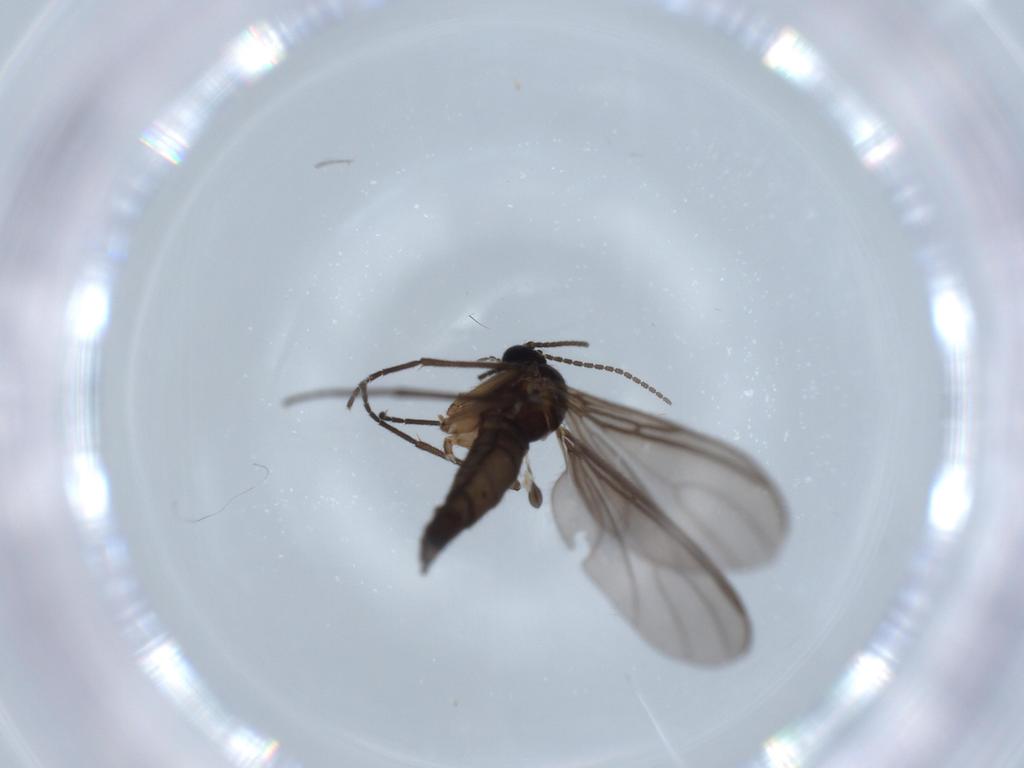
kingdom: Animalia
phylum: Arthropoda
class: Insecta
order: Diptera
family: Sciaridae
